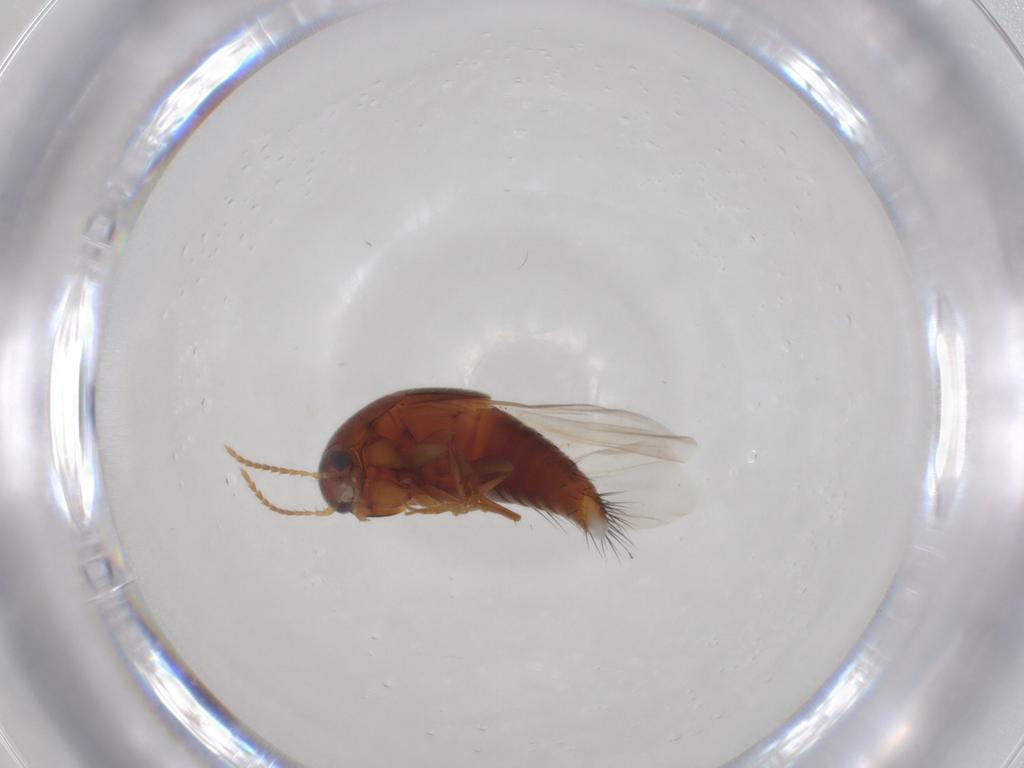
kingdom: Animalia
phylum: Arthropoda
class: Insecta
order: Coleoptera
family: Staphylinidae
